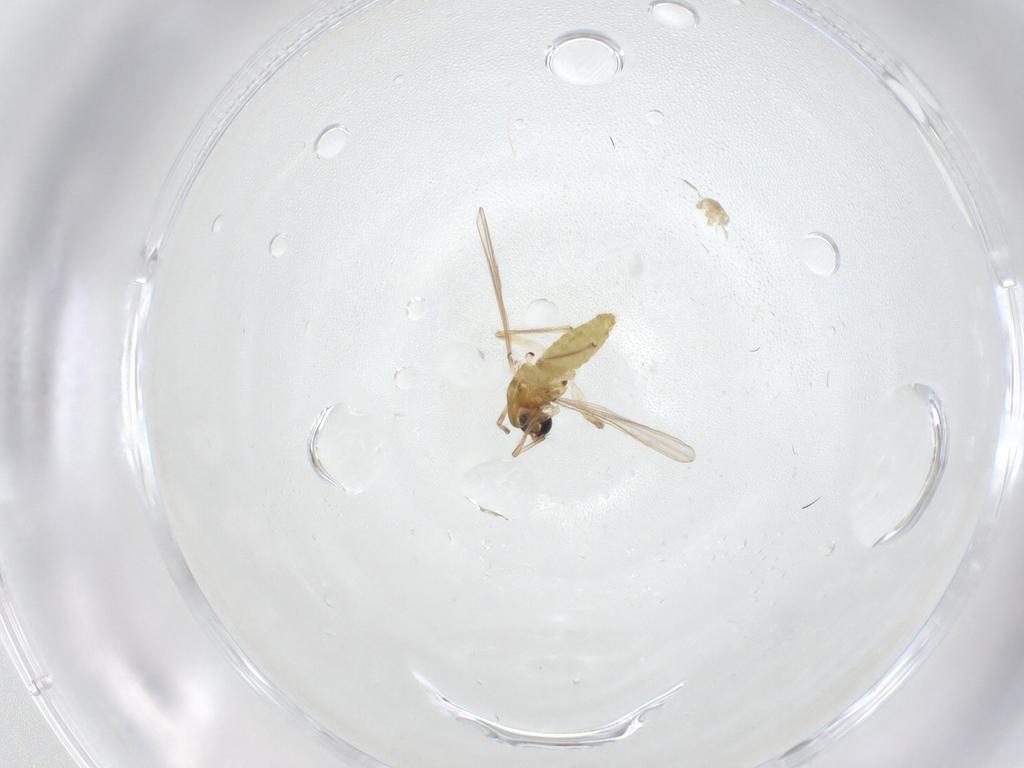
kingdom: Animalia
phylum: Arthropoda
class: Insecta
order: Diptera
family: Chironomidae
